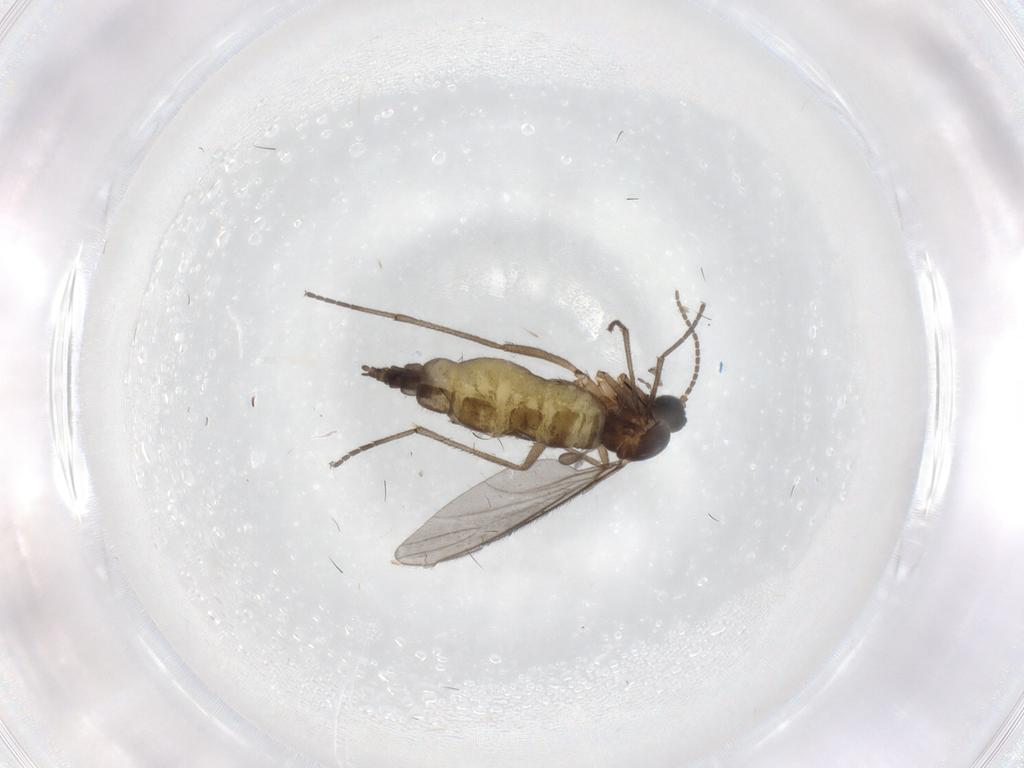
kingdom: Animalia
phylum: Arthropoda
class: Insecta
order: Diptera
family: Sciaridae
